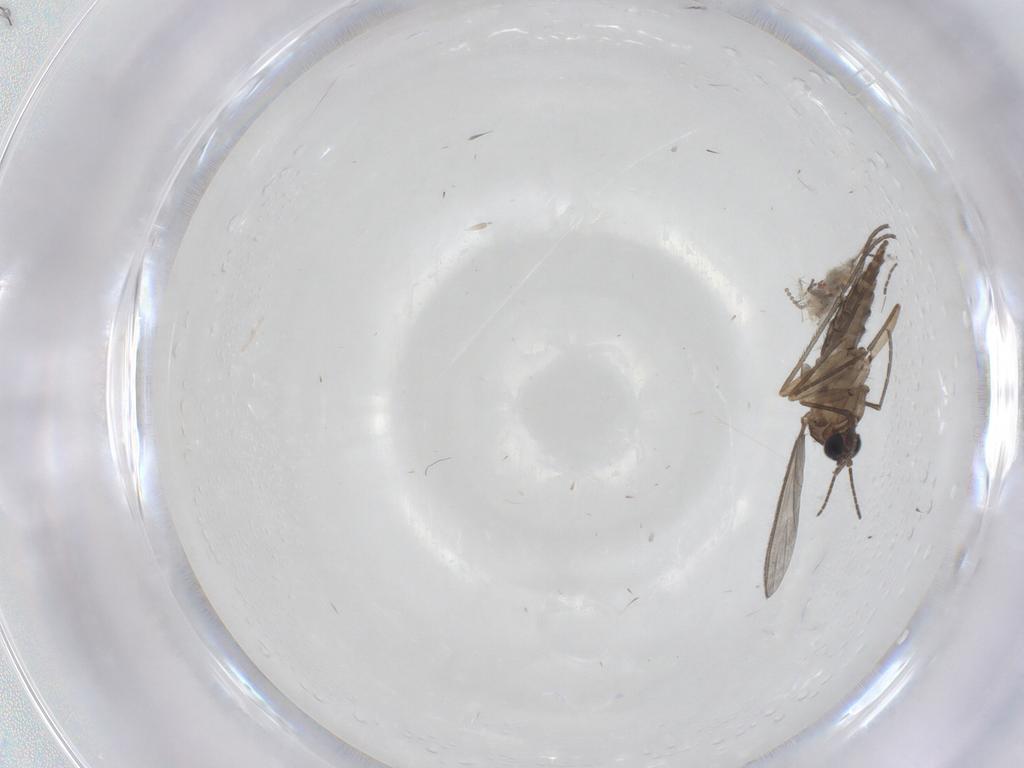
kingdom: Animalia
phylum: Arthropoda
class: Insecta
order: Diptera
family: Sciaridae
